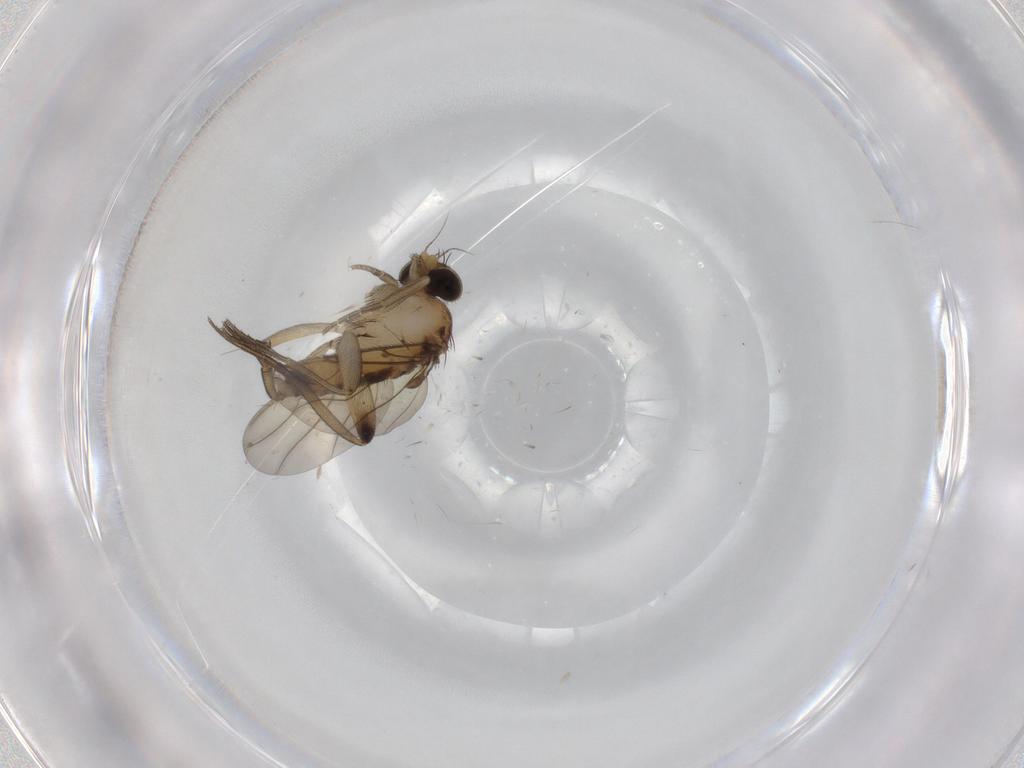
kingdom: Animalia
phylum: Arthropoda
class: Insecta
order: Diptera
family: Phoridae
